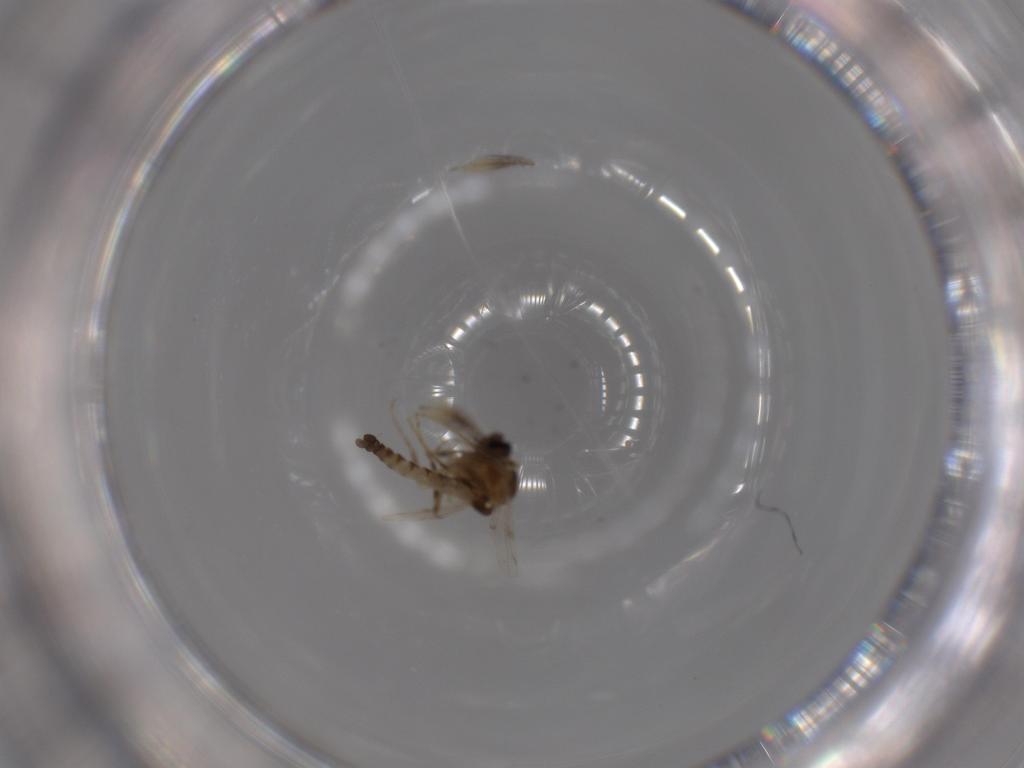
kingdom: Animalia
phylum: Arthropoda
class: Insecta
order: Diptera
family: Ceratopogonidae
